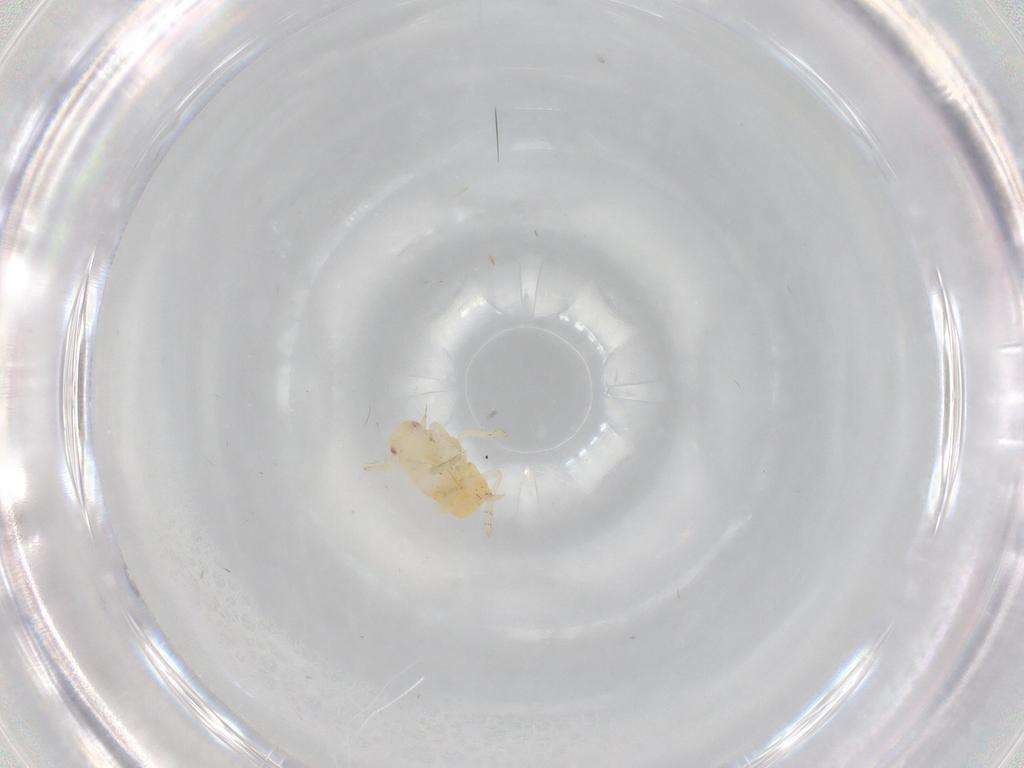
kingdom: Animalia
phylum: Arthropoda
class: Insecta
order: Hemiptera
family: Flatidae
